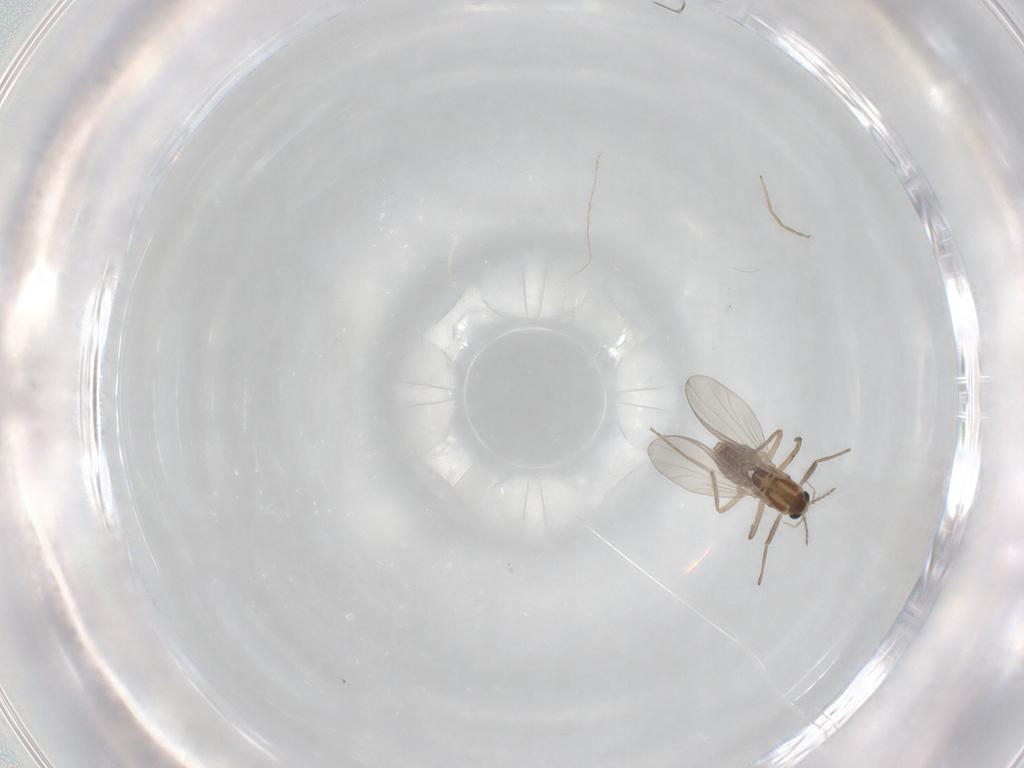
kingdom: Animalia
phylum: Arthropoda
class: Insecta
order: Diptera
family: Chironomidae
